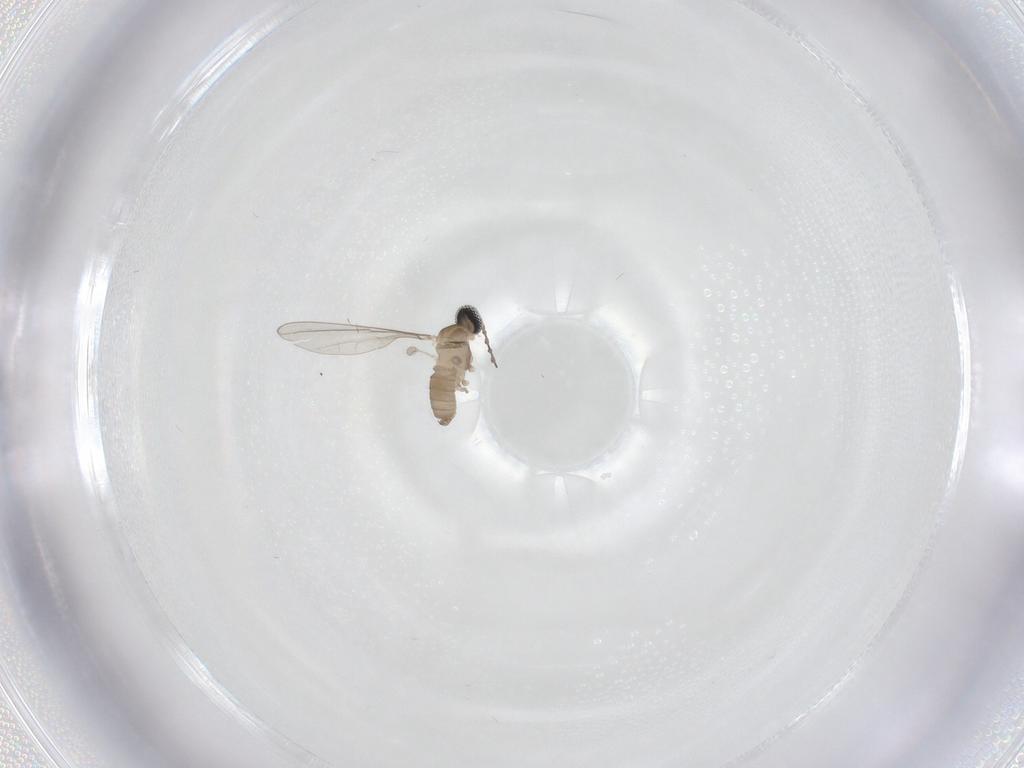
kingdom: Animalia
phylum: Arthropoda
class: Insecta
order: Diptera
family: Cecidomyiidae
